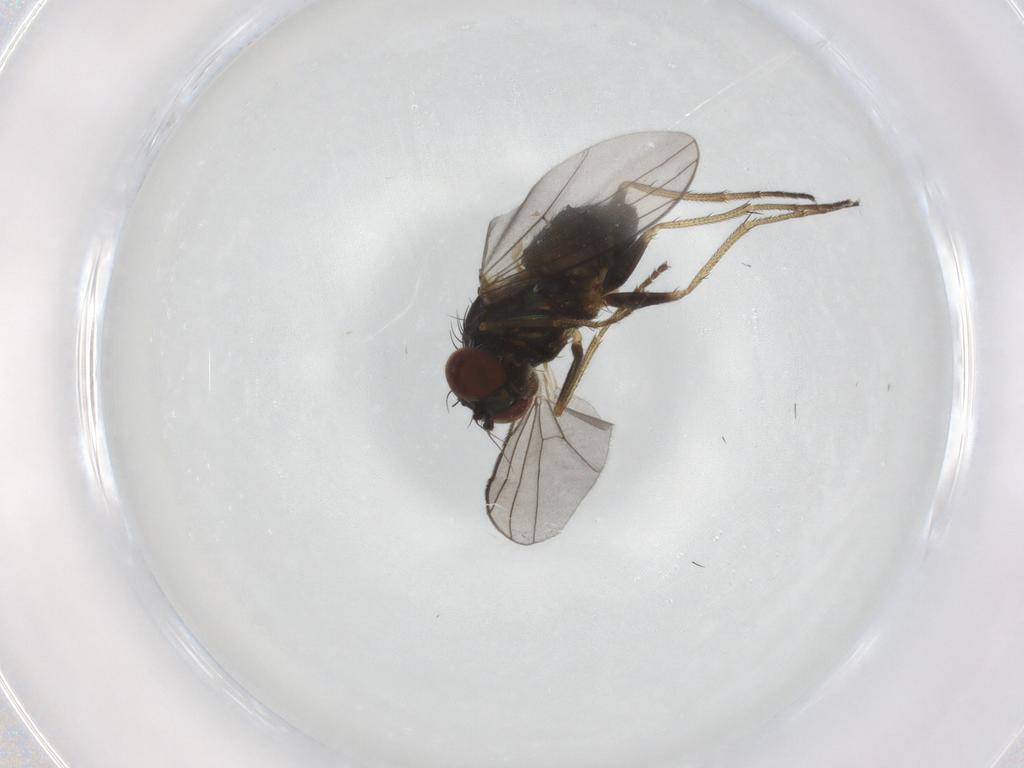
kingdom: Animalia
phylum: Arthropoda
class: Insecta
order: Diptera
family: Dolichopodidae
